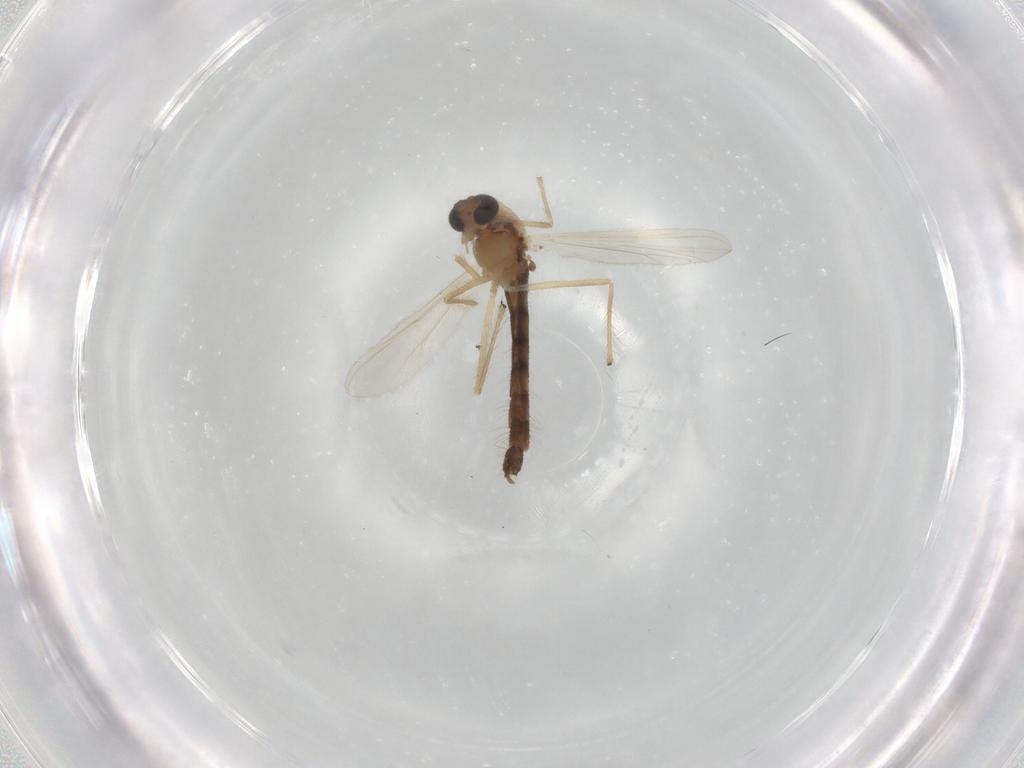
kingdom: Animalia
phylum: Arthropoda
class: Insecta
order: Diptera
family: Chironomidae
